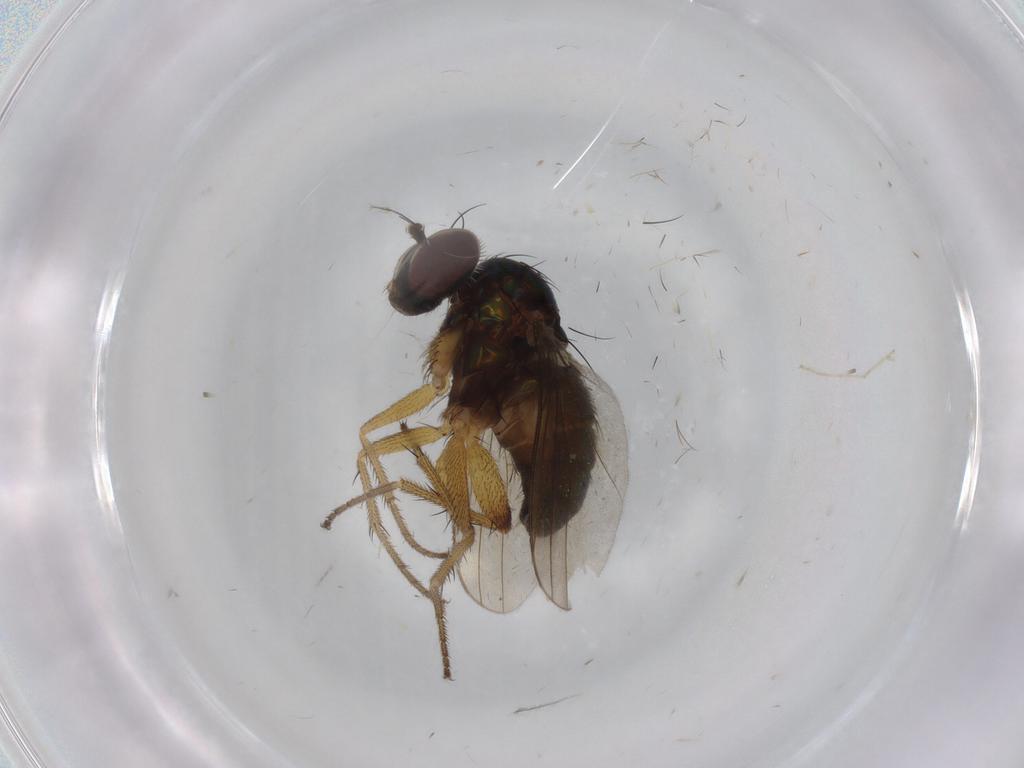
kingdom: Animalia
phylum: Arthropoda
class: Insecta
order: Diptera
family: Dolichopodidae
